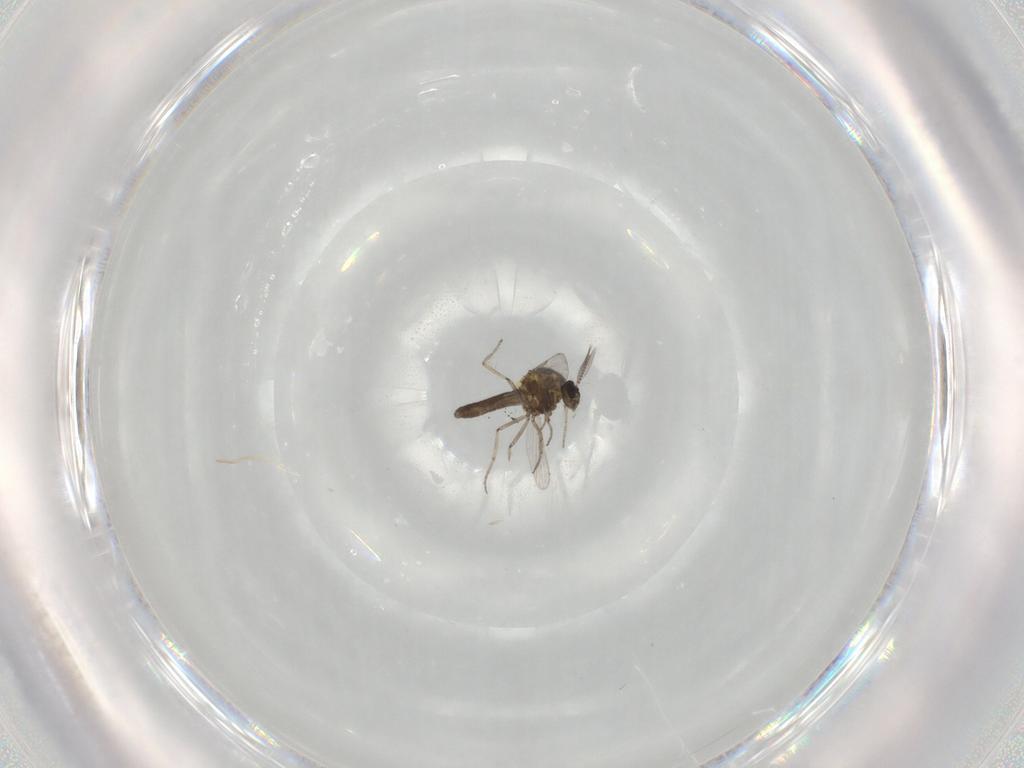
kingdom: Animalia
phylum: Arthropoda
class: Insecta
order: Diptera
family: Ceratopogonidae
